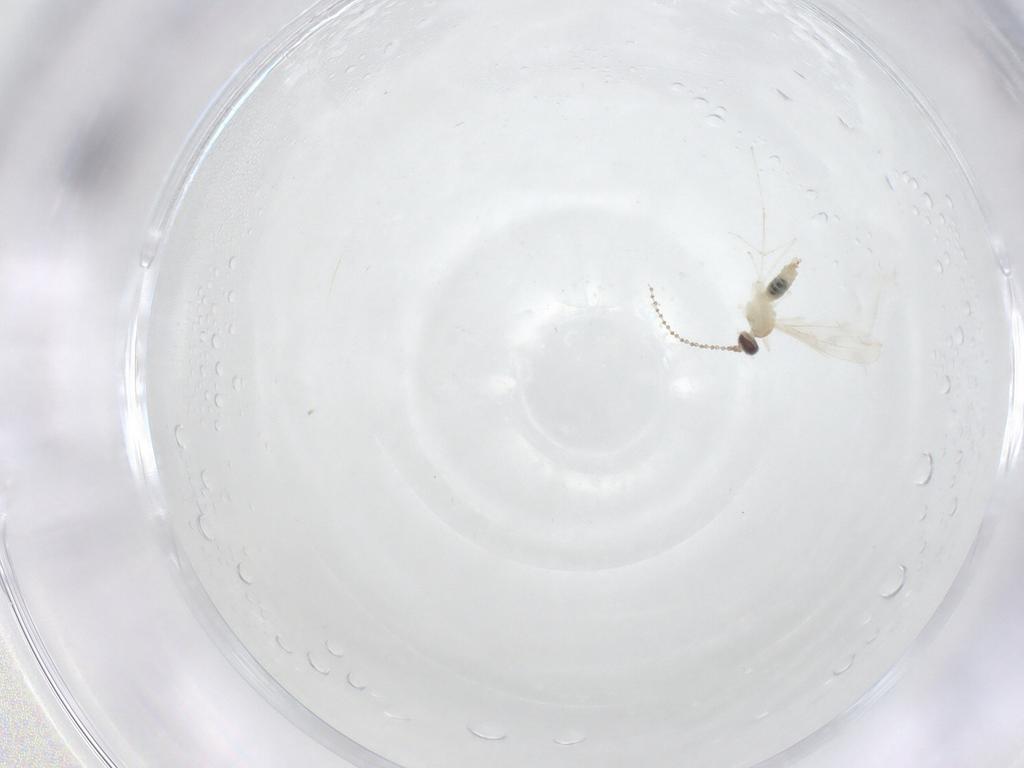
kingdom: Animalia
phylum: Arthropoda
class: Insecta
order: Diptera
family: Cecidomyiidae
